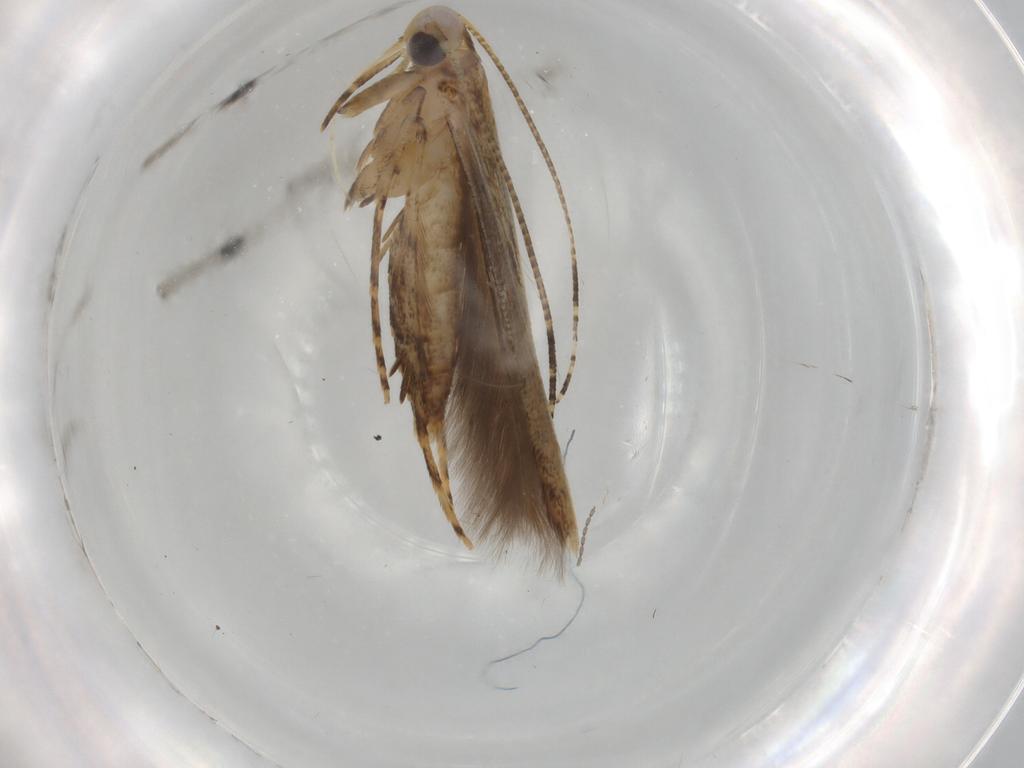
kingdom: Animalia
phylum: Arthropoda
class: Insecta
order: Lepidoptera
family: Batrachedridae
